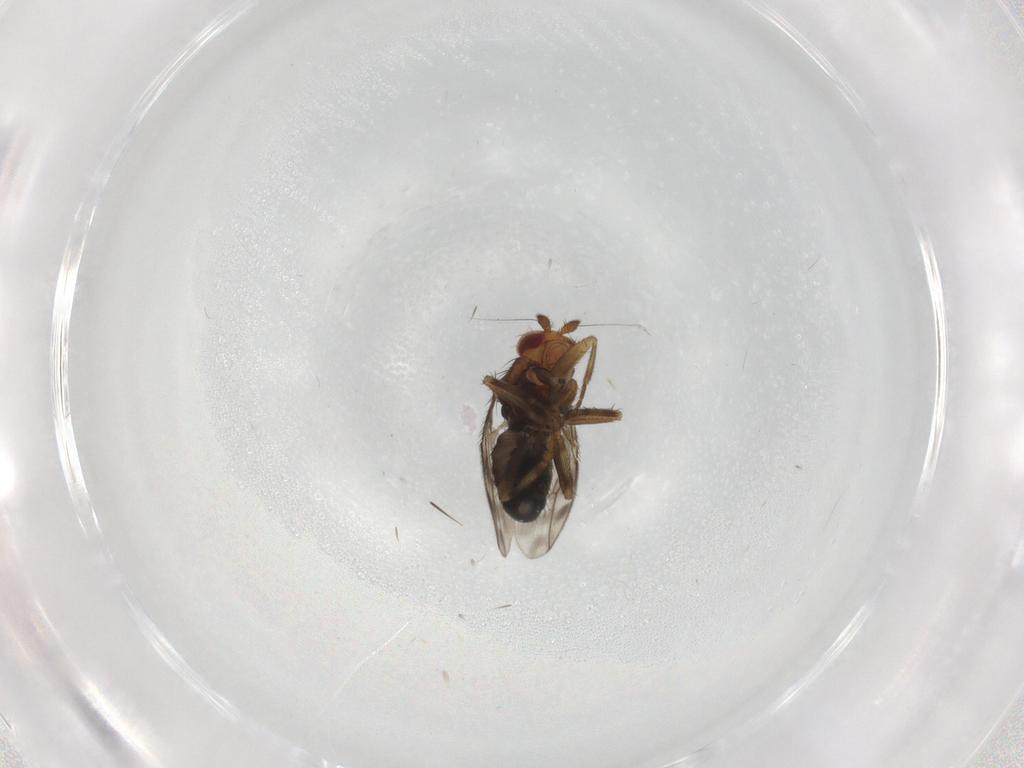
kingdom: Animalia
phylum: Arthropoda
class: Insecta
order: Diptera
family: Sphaeroceridae
